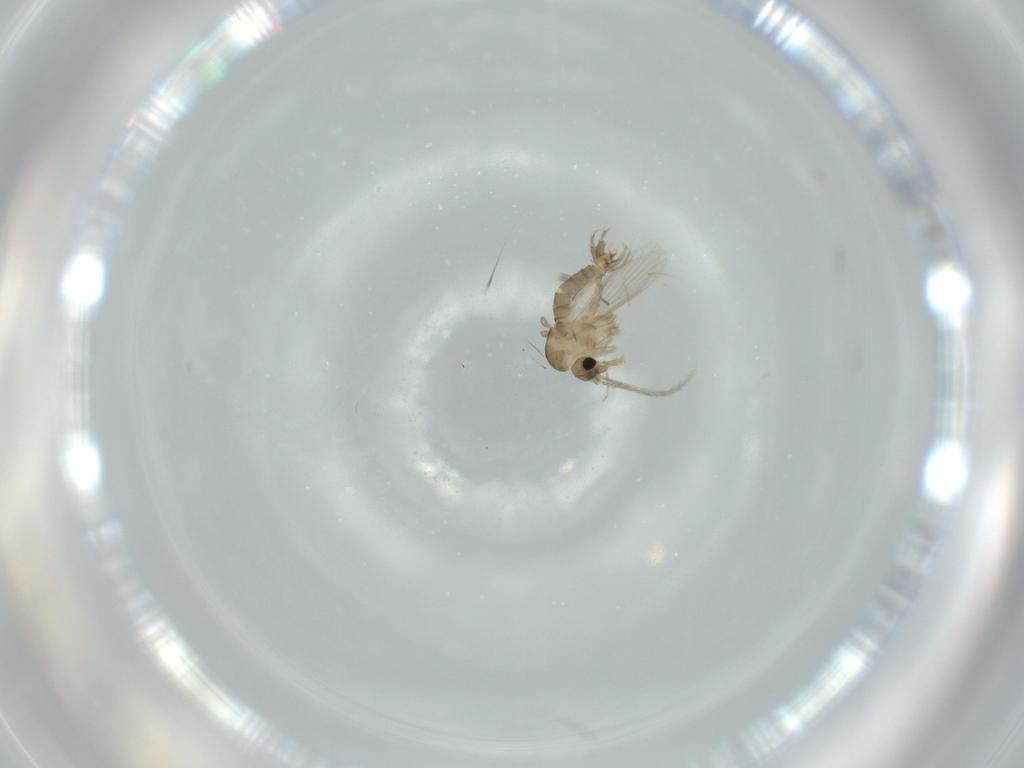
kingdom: Animalia
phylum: Arthropoda
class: Insecta
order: Diptera
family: Psychodidae
